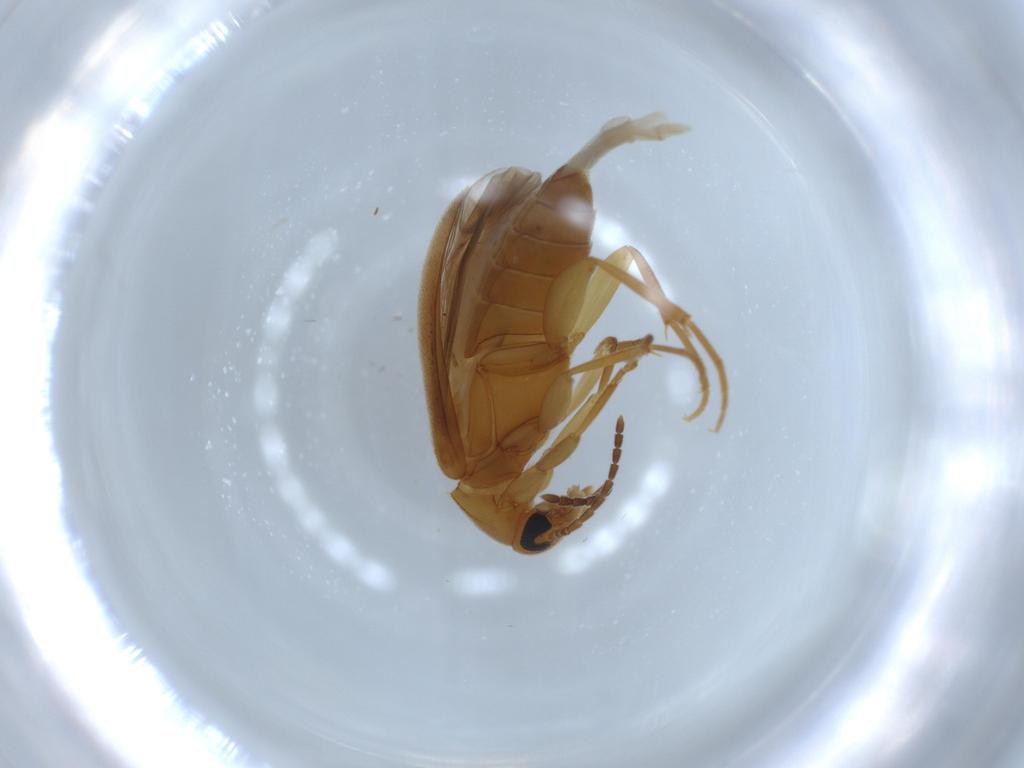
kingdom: Animalia
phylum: Arthropoda
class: Insecta
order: Coleoptera
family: Scraptiidae
